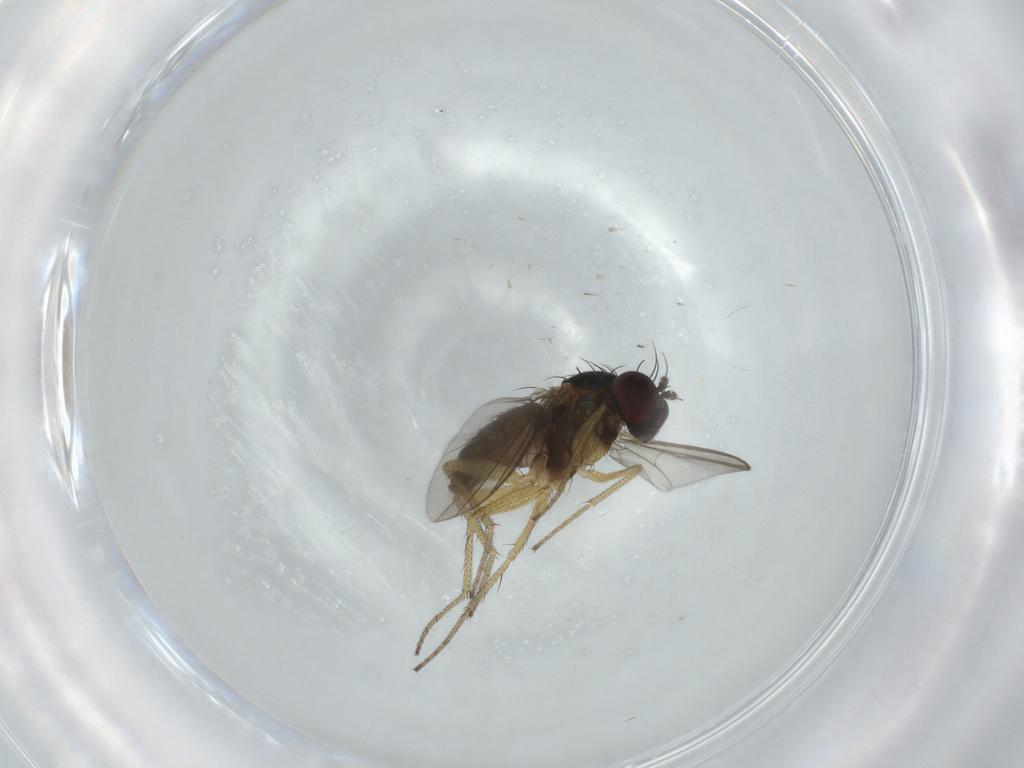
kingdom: Animalia
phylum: Arthropoda
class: Insecta
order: Diptera
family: Dolichopodidae
